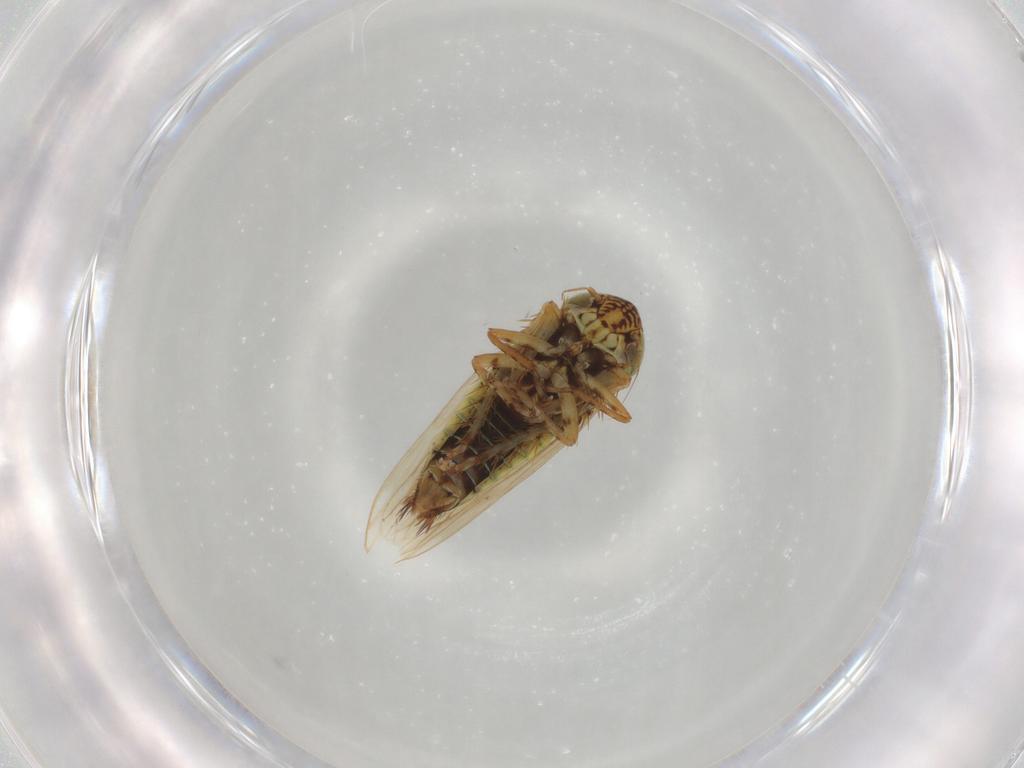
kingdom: Animalia
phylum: Arthropoda
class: Insecta
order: Hemiptera
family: Cicadellidae
